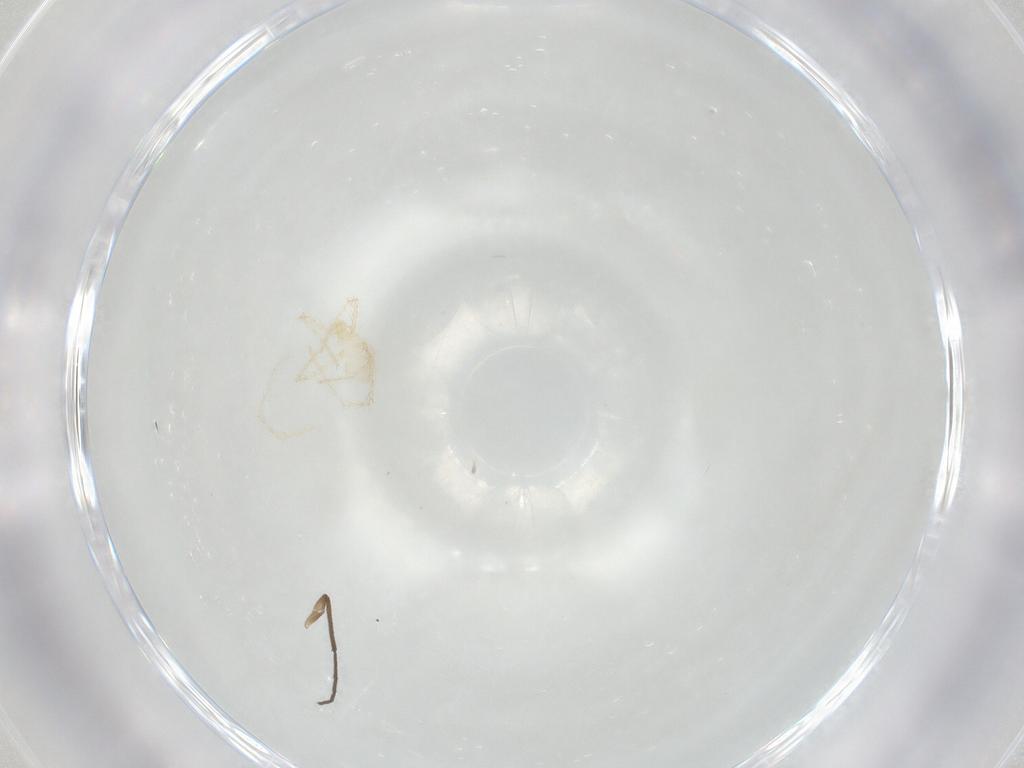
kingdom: Animalia
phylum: Arthropoda
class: Insecta
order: Diptera
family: Chironomidae
